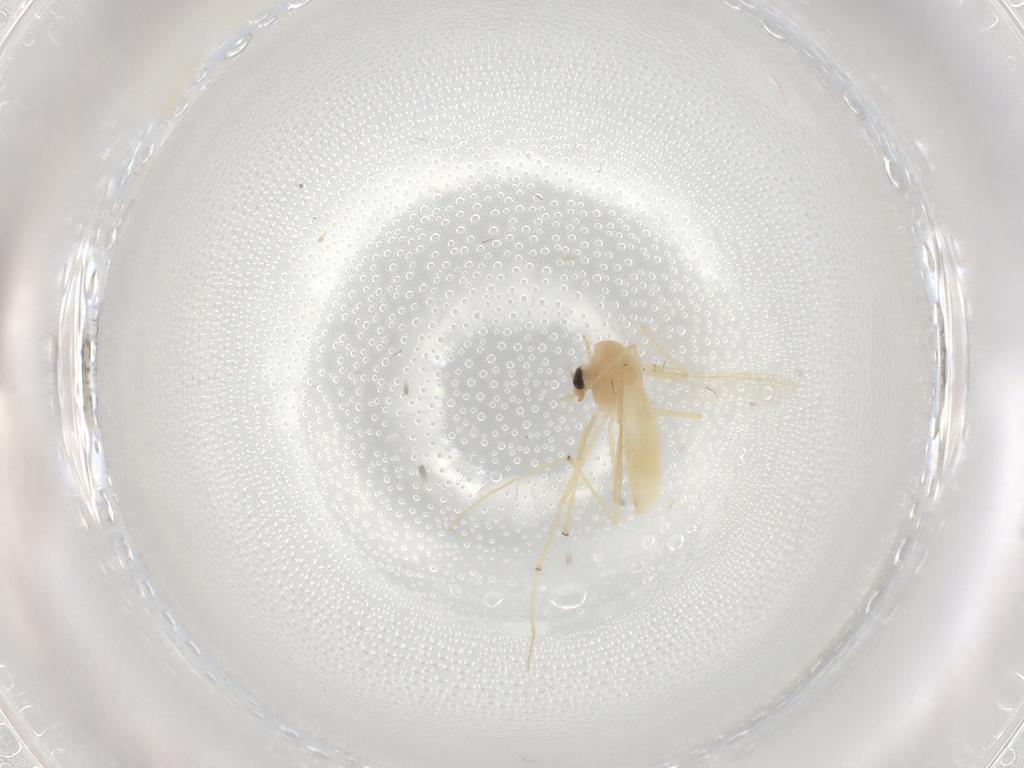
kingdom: Animalia
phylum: Arthropoda
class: Insecta
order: Diptera
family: Chironomidae
